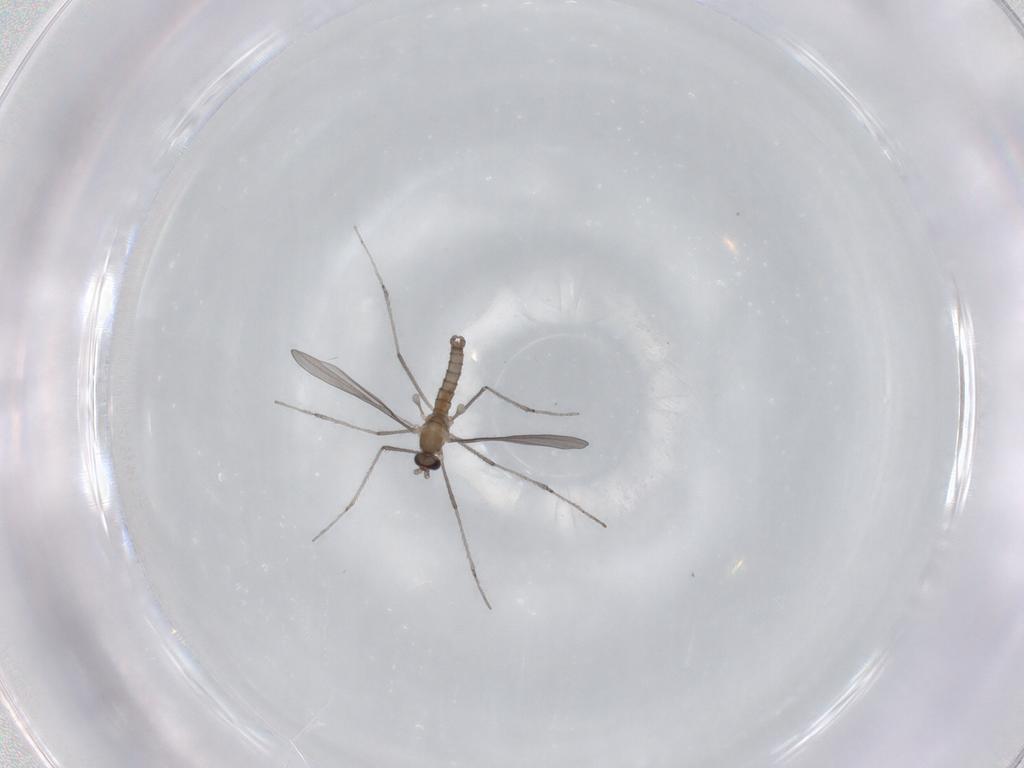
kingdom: Animalia
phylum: Arthropoda
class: Insecta
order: Diptera
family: Cecidomyiidae
